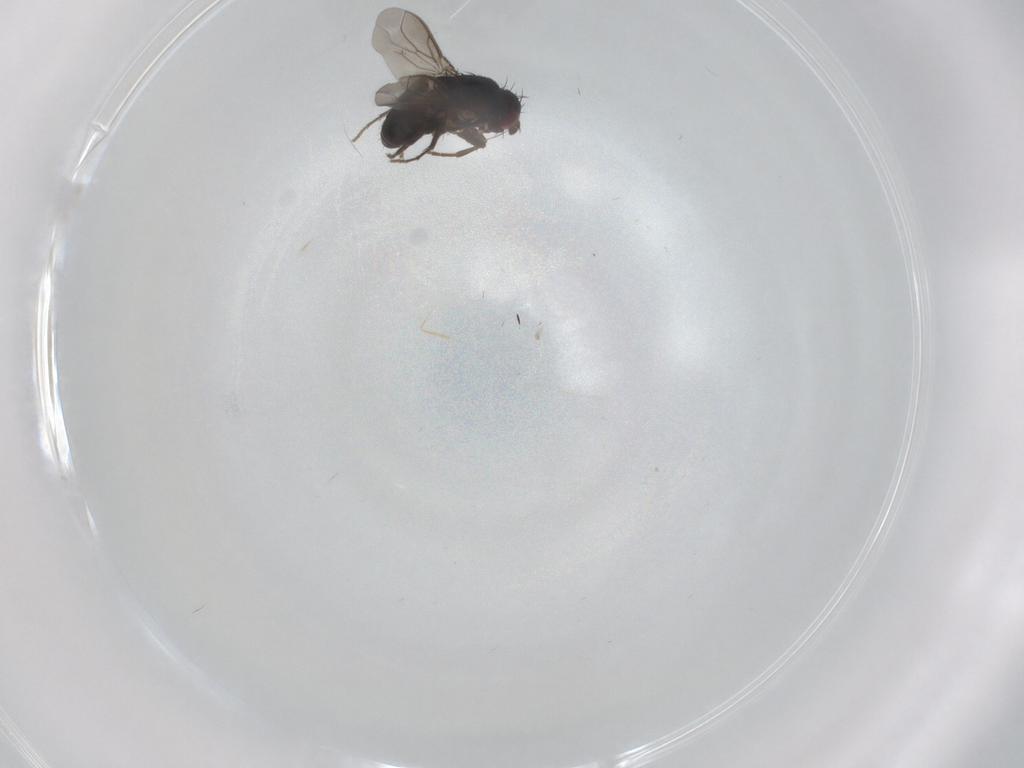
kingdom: Animalia
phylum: Arthropoda
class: Insecta
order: Diptera
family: Sphaeroceridae
